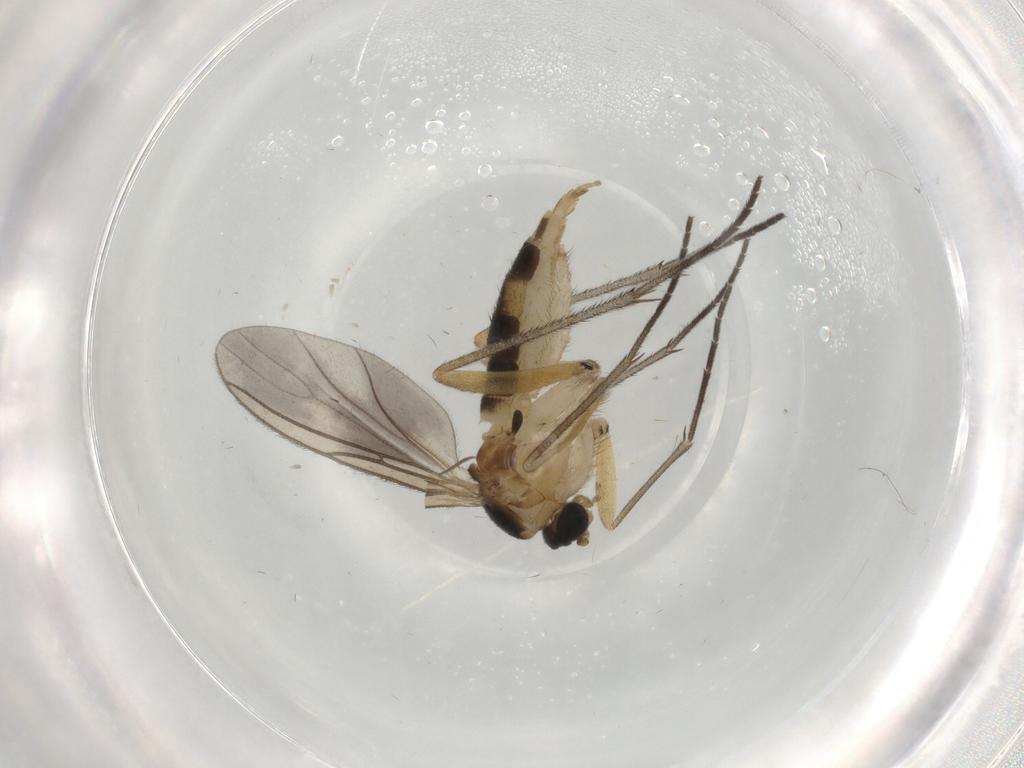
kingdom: Animalia
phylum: Arthropoda
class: Insecta
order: Diptera
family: Sciaridae
